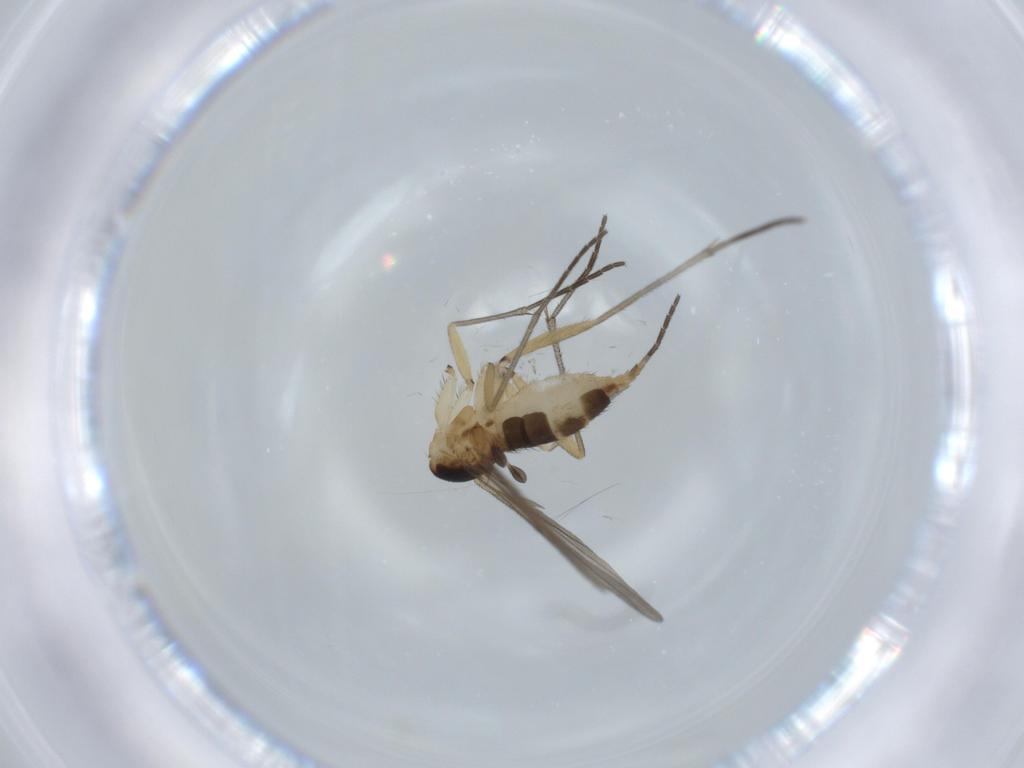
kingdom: Animalia
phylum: Arthropoda
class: Insecta
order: Diptera
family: Sciaridae
